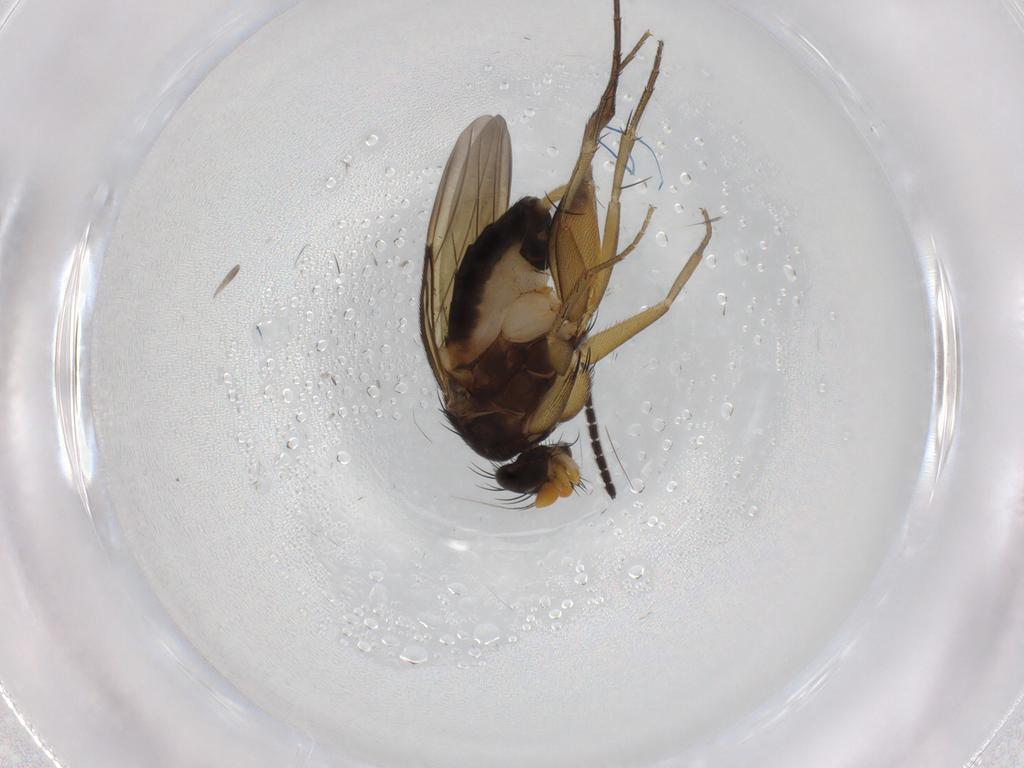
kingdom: Animalia
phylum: Arthropoda
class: Insecta
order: Diptera
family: Phoridae
